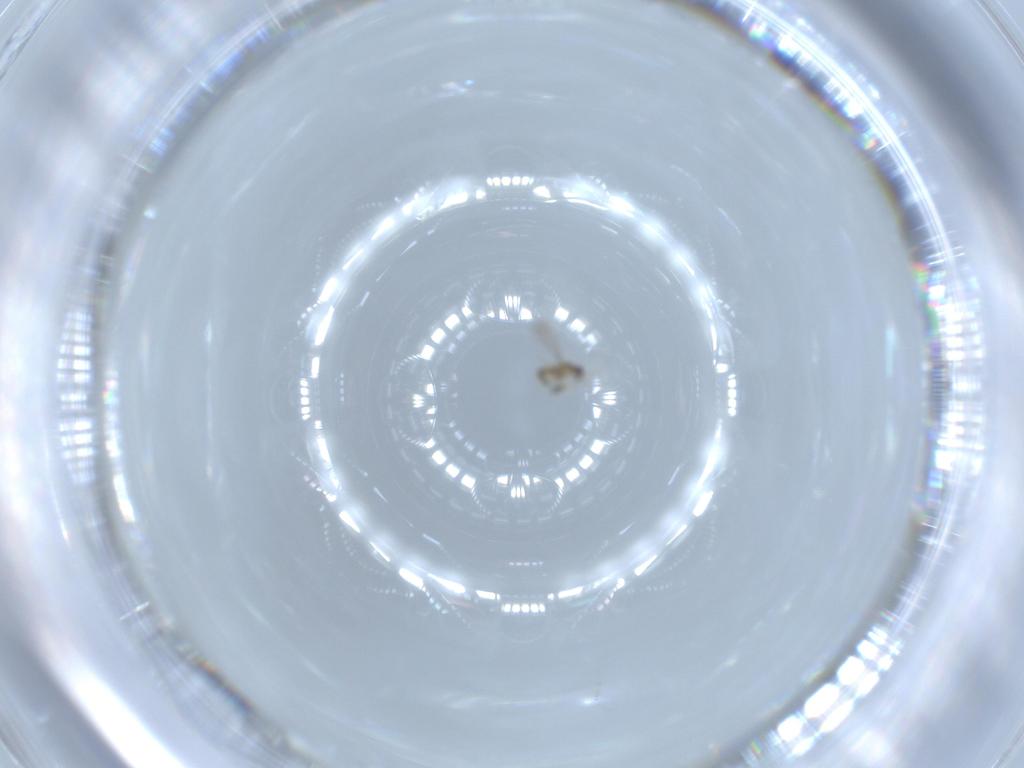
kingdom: Animalia
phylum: Arthropoda
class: Insecta
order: Hymenoptera
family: Mymaridae
